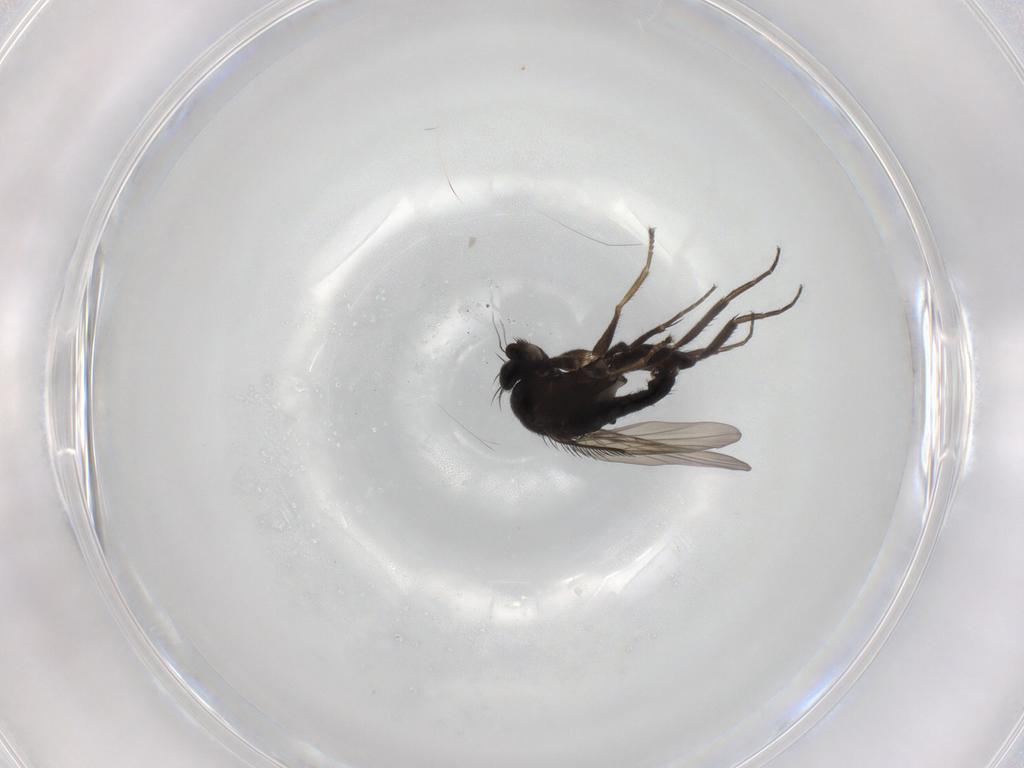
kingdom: Animalia
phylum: Arthropoda
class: Insecta
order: Diptera
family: Phoridae
